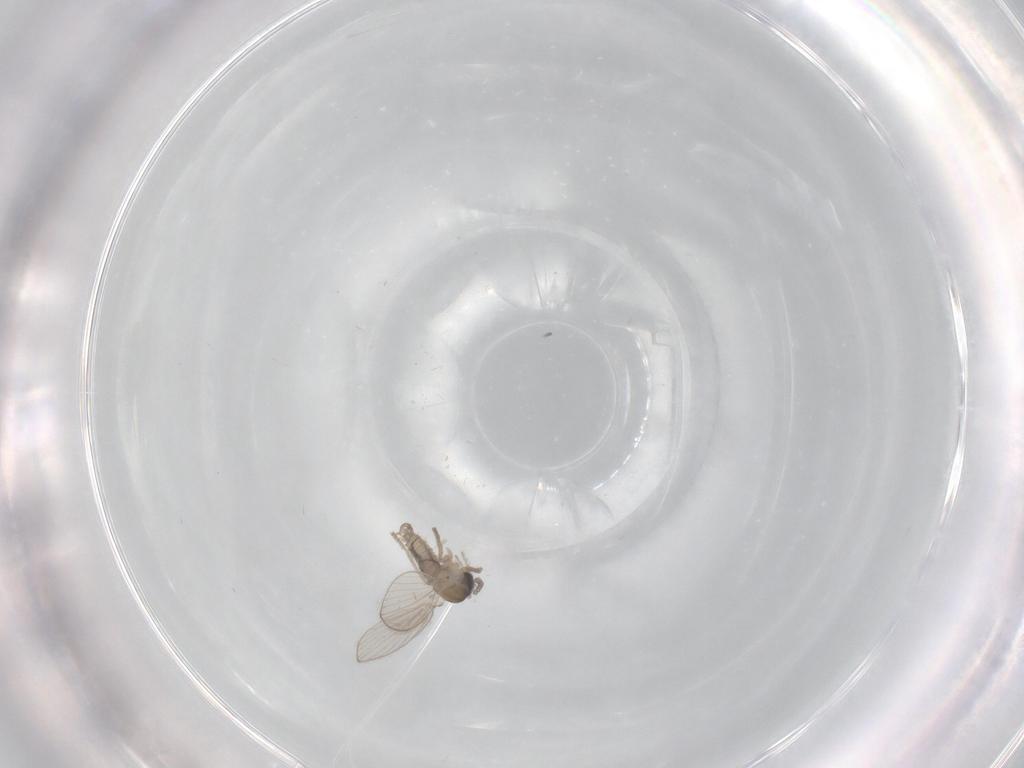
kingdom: Animalia
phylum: Arthropoda
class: Insecta
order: Diptera
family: Psychodidae
